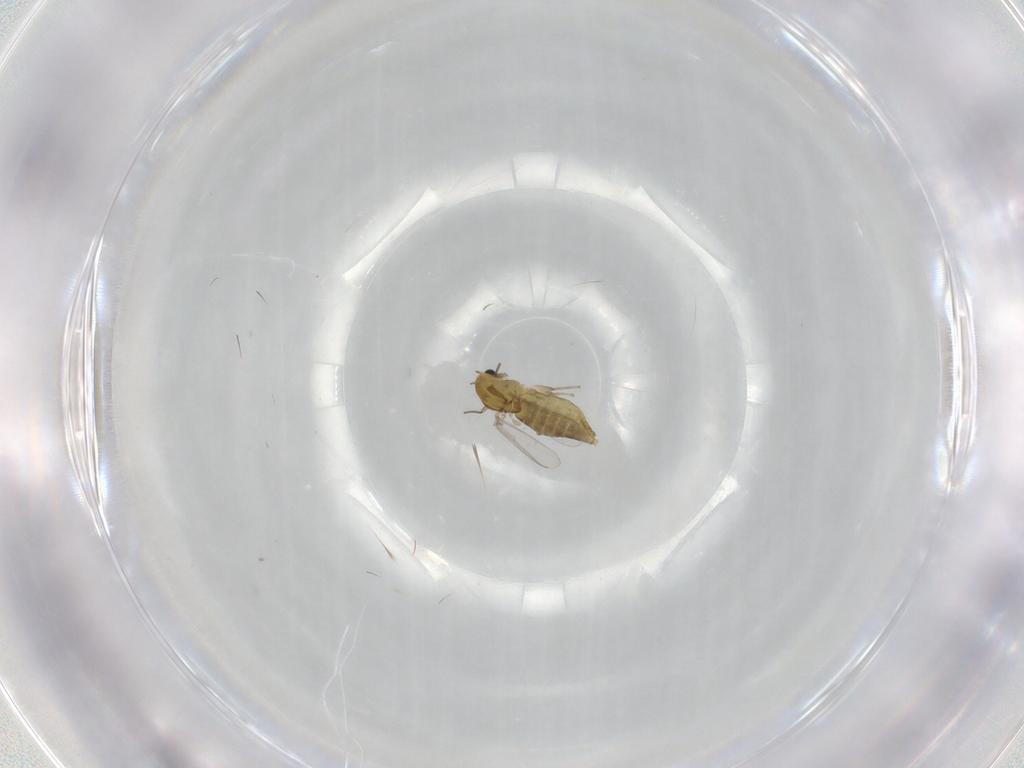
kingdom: Animalia
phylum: Arthropoda
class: Insecta
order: Diptera
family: Chironomidae
